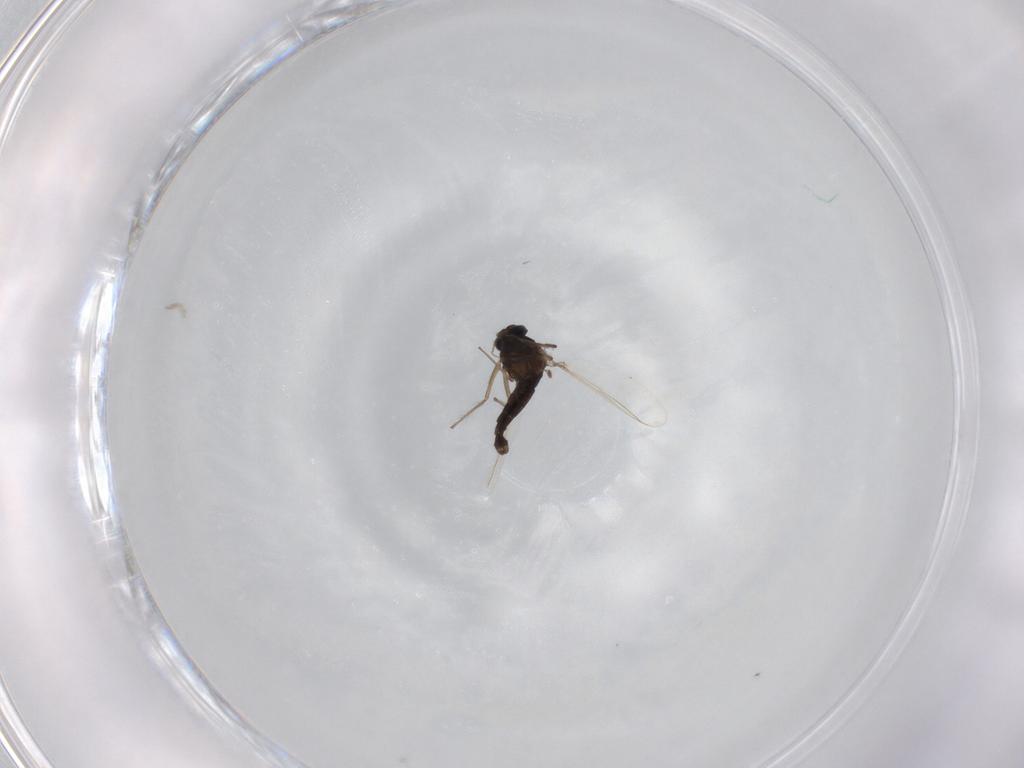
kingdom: Animalia
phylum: Arthropoda
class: Insecta
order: Diptera
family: Chironomidae
